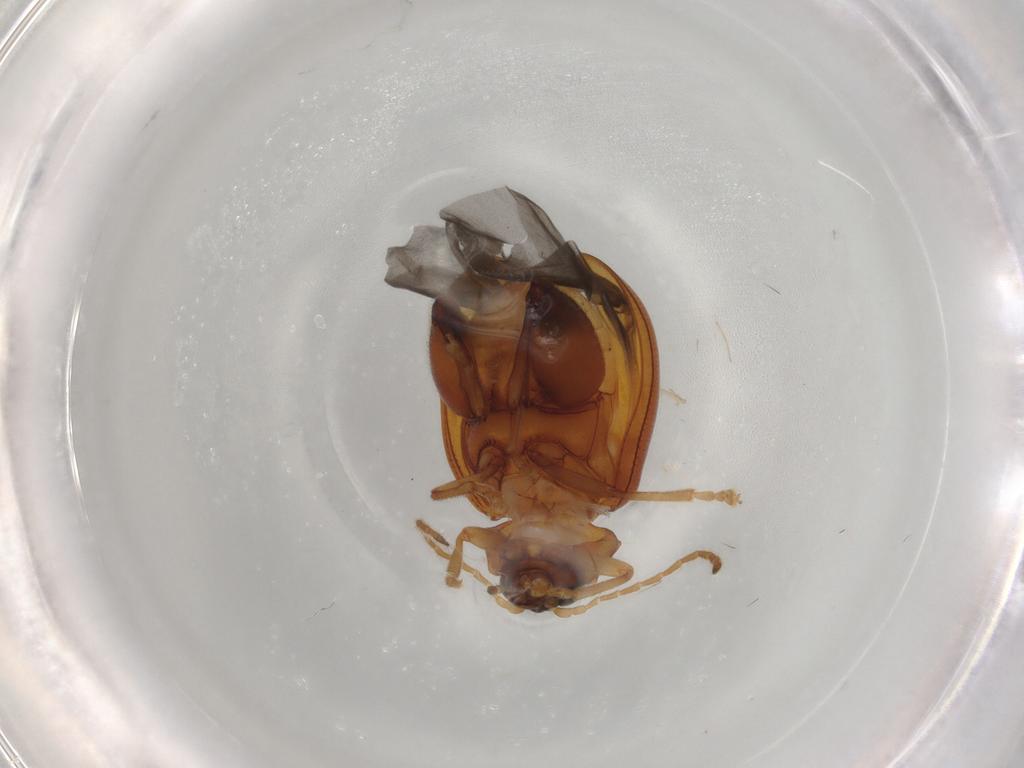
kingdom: Animalia
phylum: Arthropoda
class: Insecta
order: Coleoptera
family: Chrysomelidae
